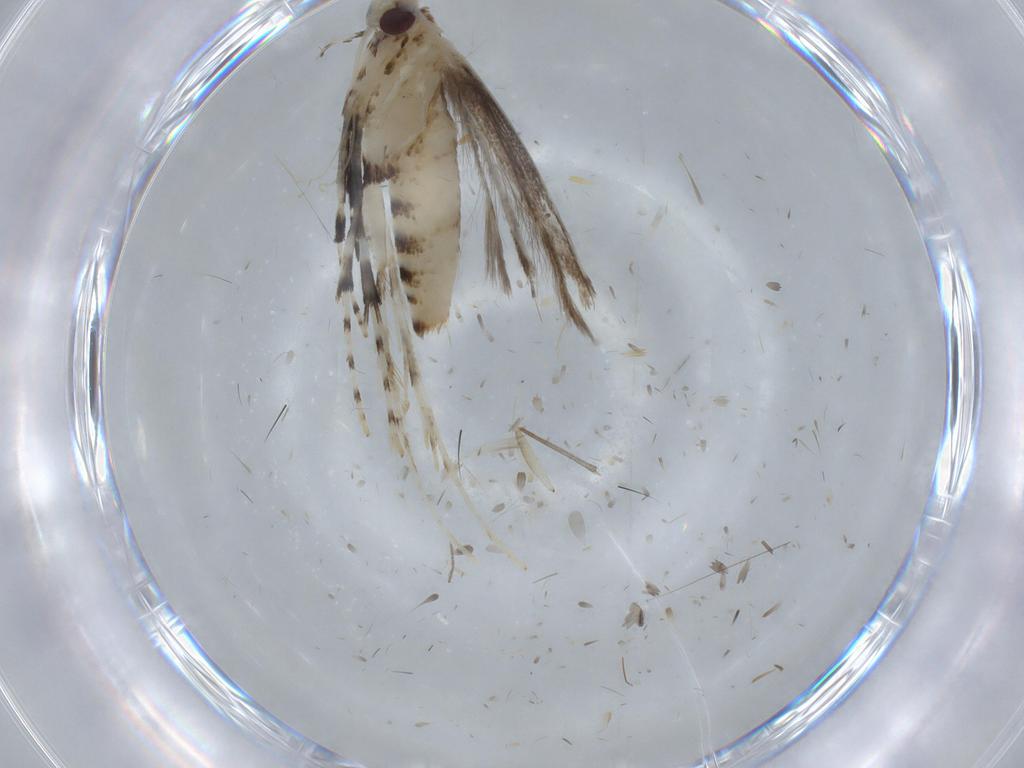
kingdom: Animalia
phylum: Arthropoda
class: Insecta
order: Lepidoptera
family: Gracillariidae
